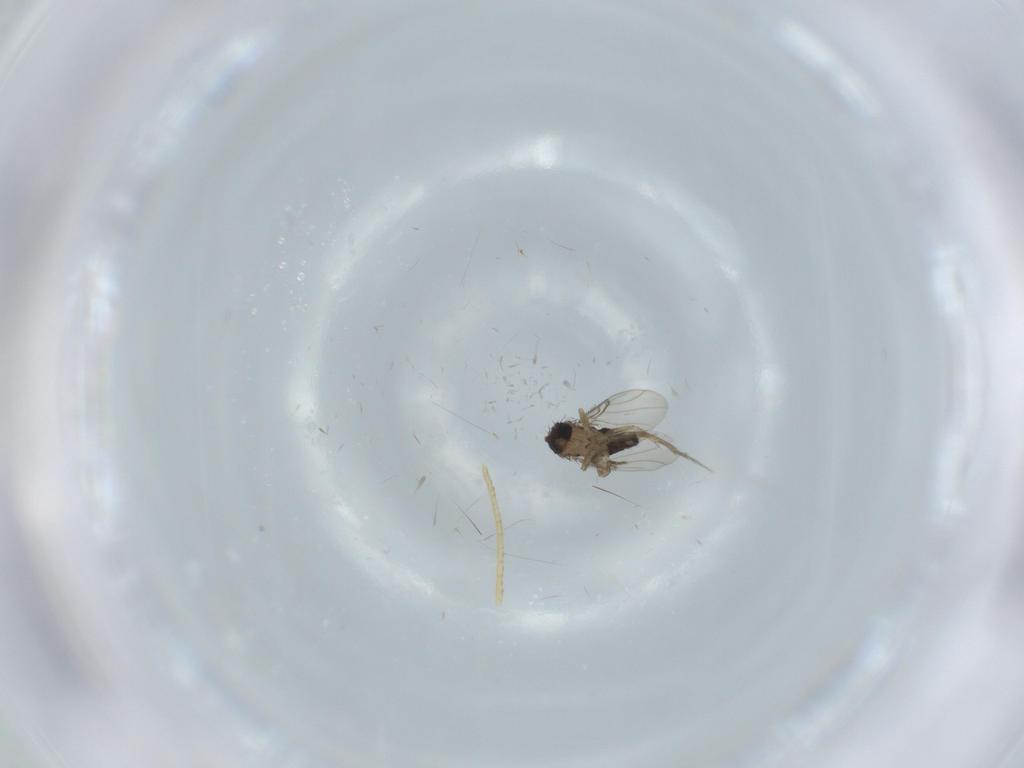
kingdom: Animalia
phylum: Arthropoda
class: Insecta
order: Diptera
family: Phoridae
